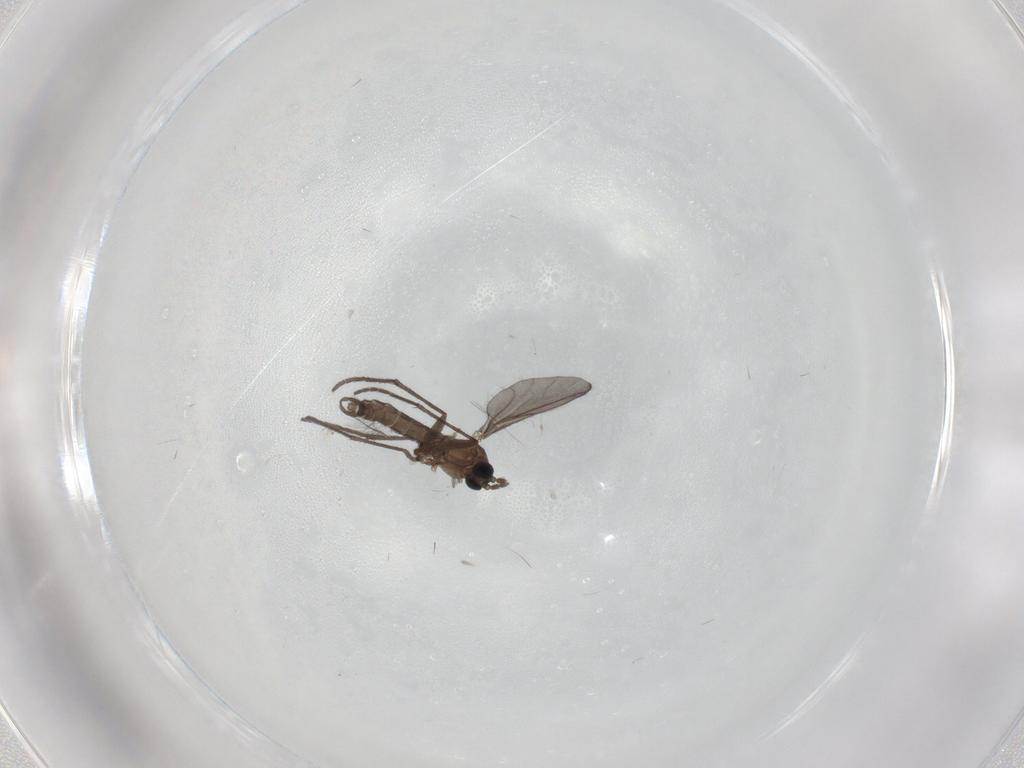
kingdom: Animalia
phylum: Arthropoda
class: Insecta
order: Diptera
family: Sciaridae
